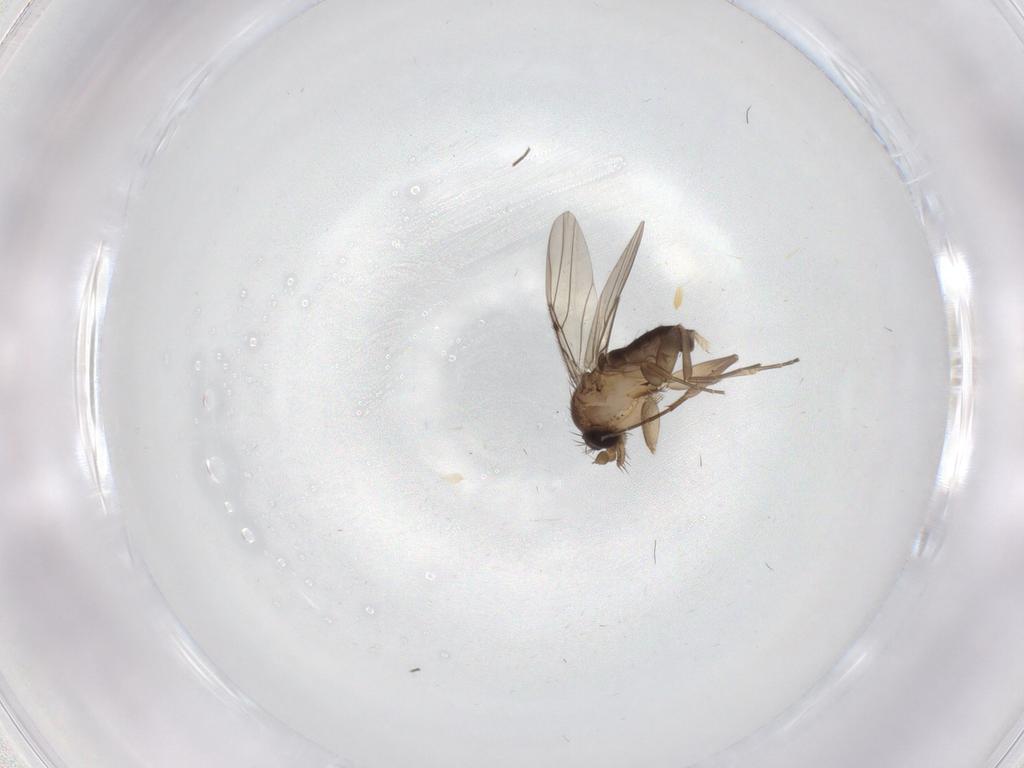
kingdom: Animalia
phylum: Arthropoda
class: Insecta
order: Diptera
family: Phoridae
